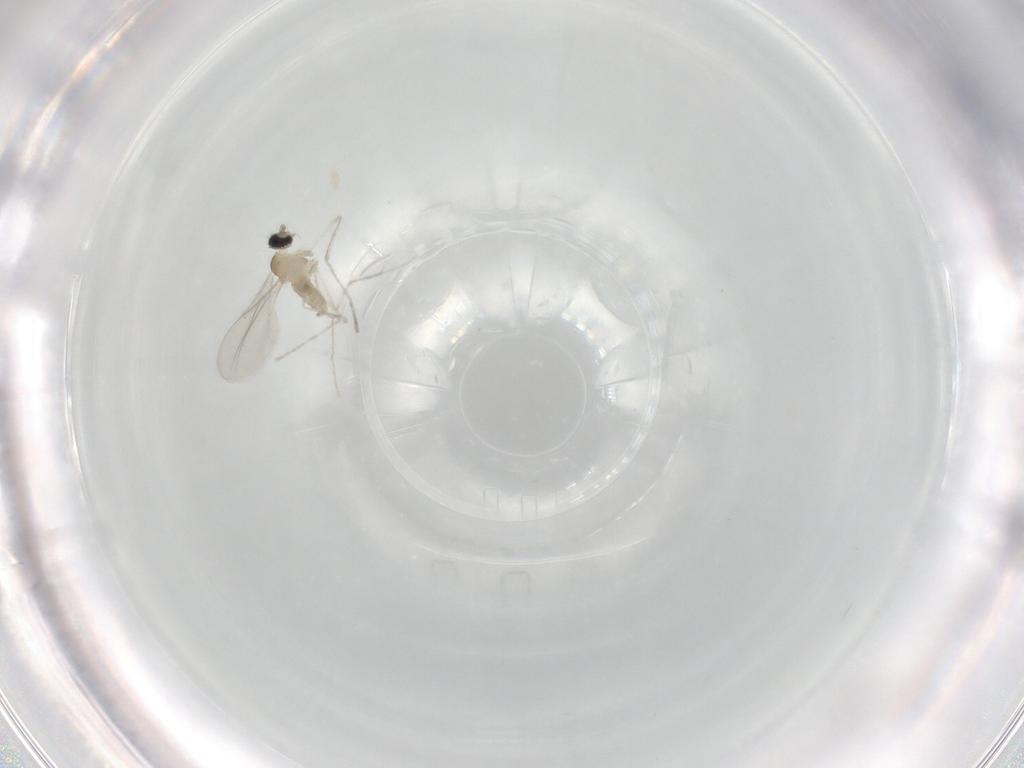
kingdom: Animalia
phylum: Arthropoda
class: Insecta
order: Diptera
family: Cecidomyiidae
